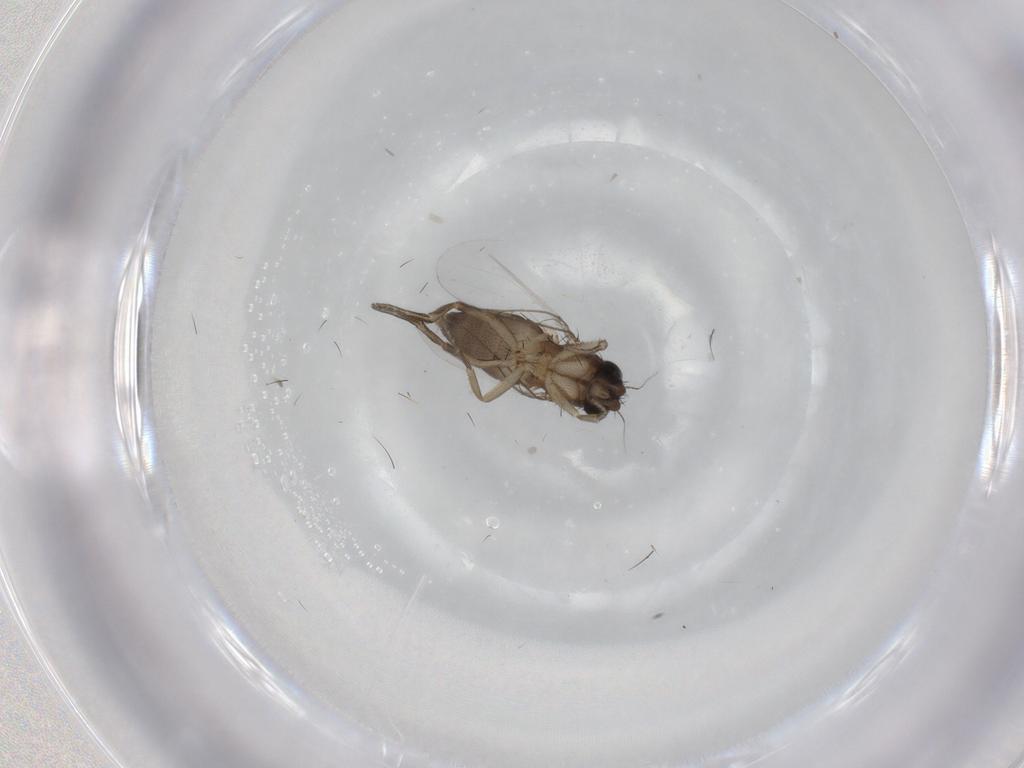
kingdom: Animalia
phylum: Arthropoda
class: Insecta
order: Diptera
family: Phoridae
